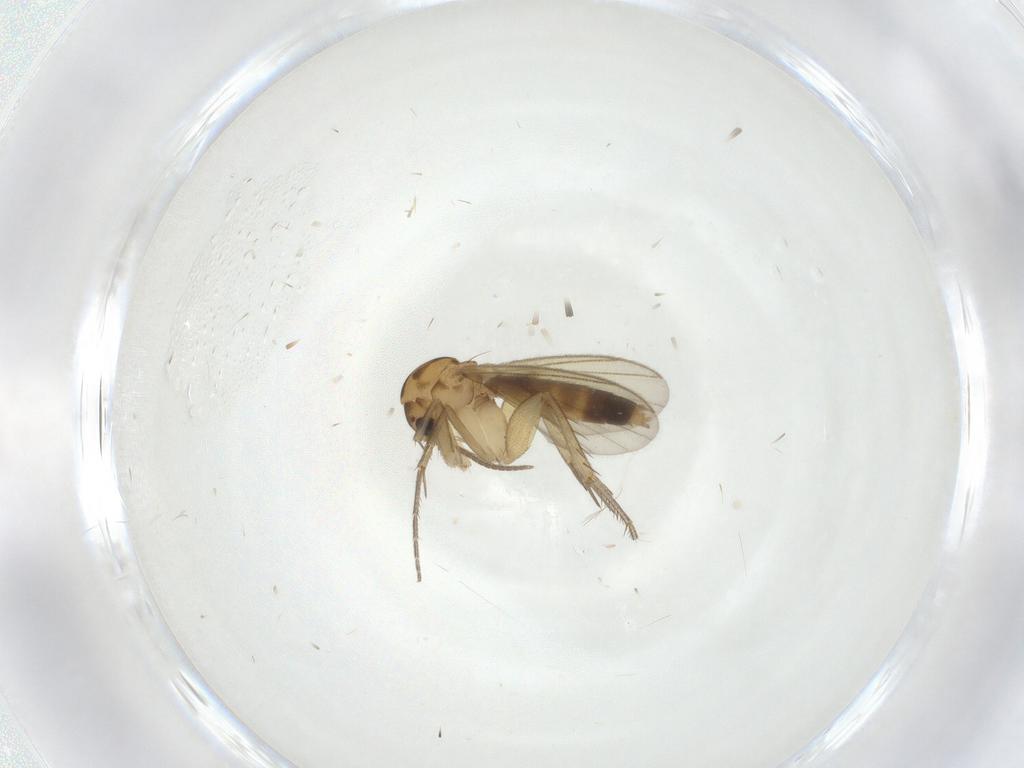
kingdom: Animalia
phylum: Arthropoda
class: Insecta
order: Diptera
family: Mycetophilidae
